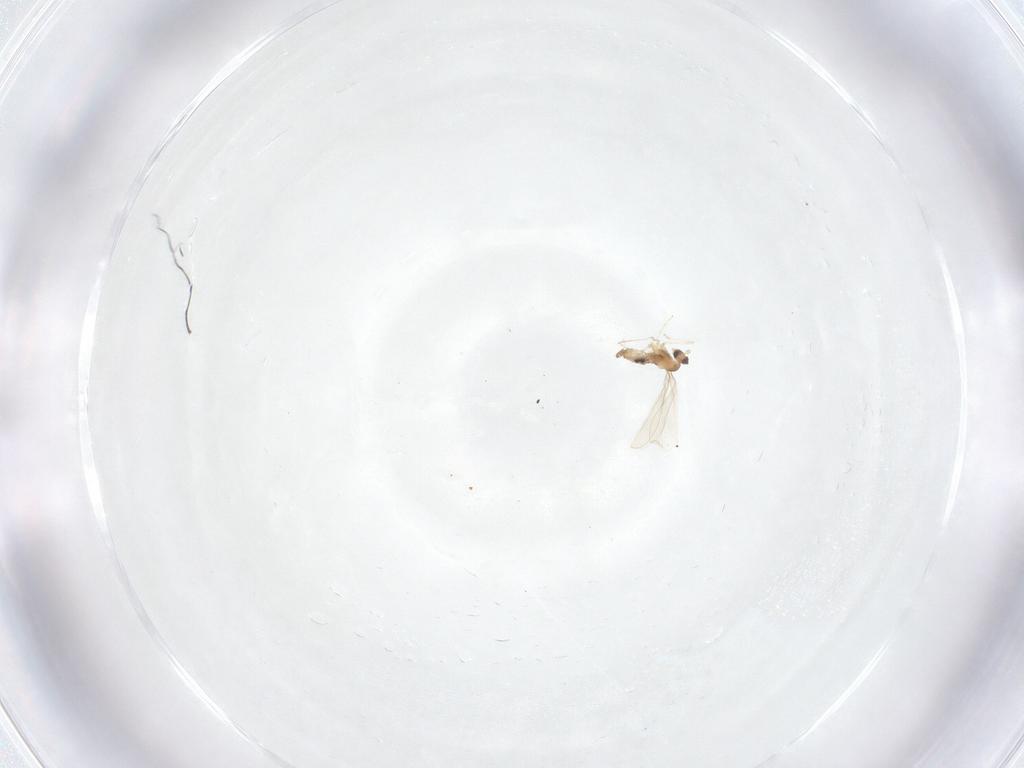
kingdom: Animalia
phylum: Arthropoda
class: Insecta
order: Diptera
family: Cecidomyiidae
